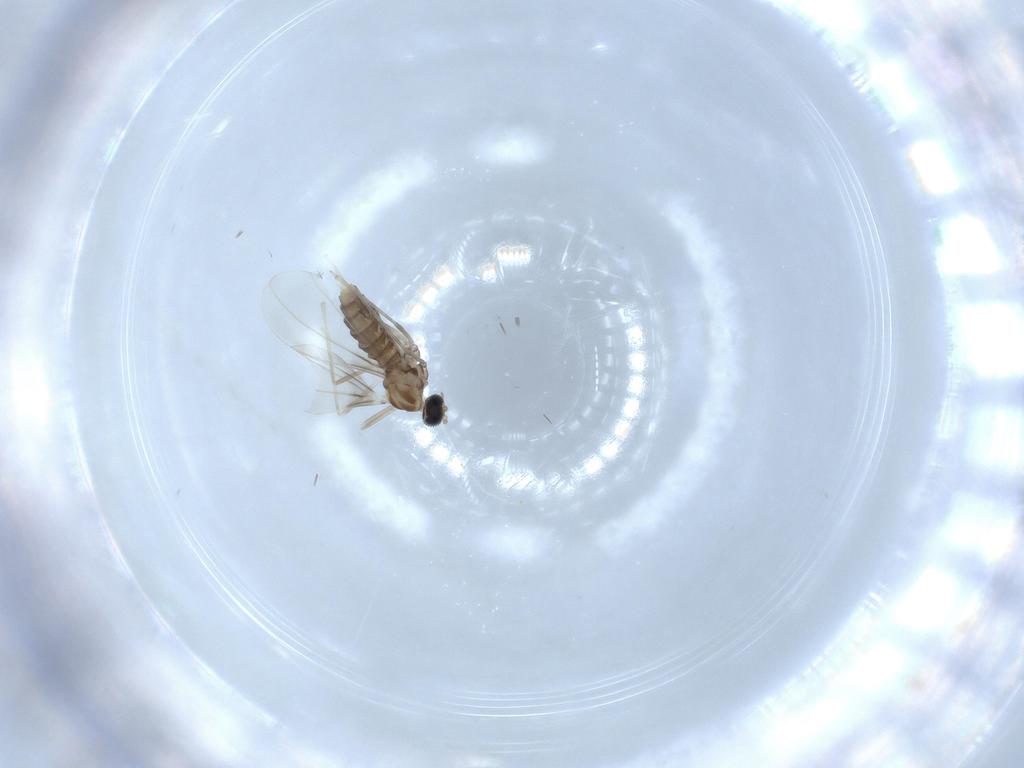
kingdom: Animalia
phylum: Arthropoda
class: Insecta
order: Diptera
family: Cecidomyiidae
